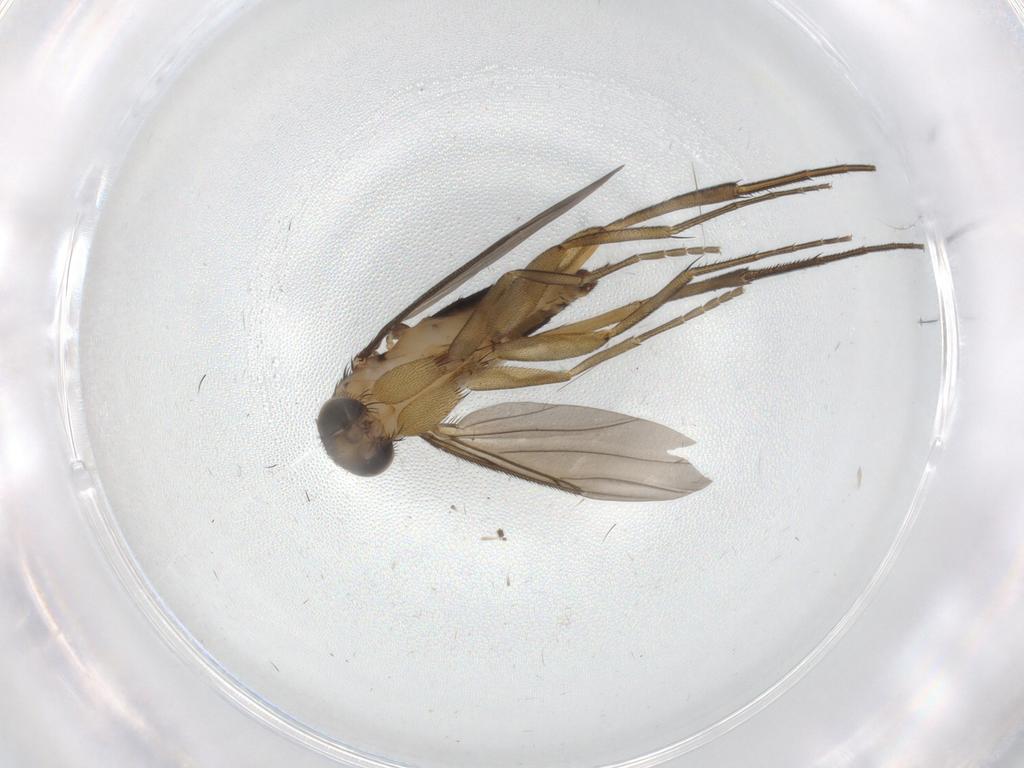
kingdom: Animalia
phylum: Arthropoda
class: Insecta
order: Diptera
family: Phoridae
